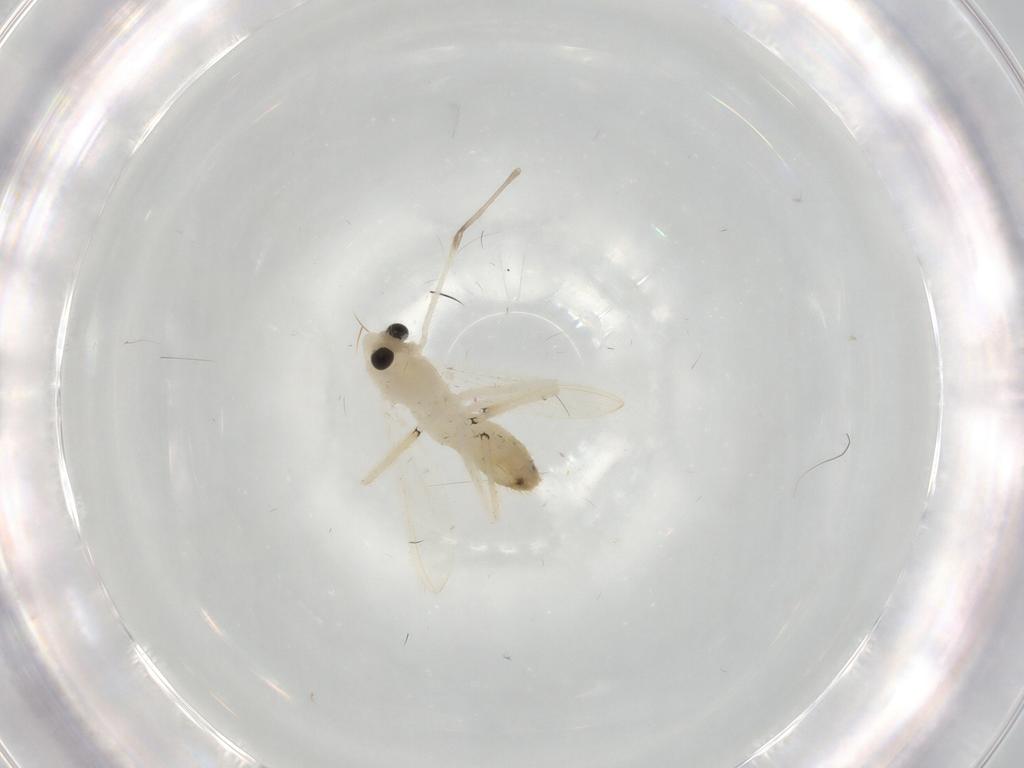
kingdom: Animalia
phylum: Arthropoda
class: Insecta
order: Diptera
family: Chironomidae
